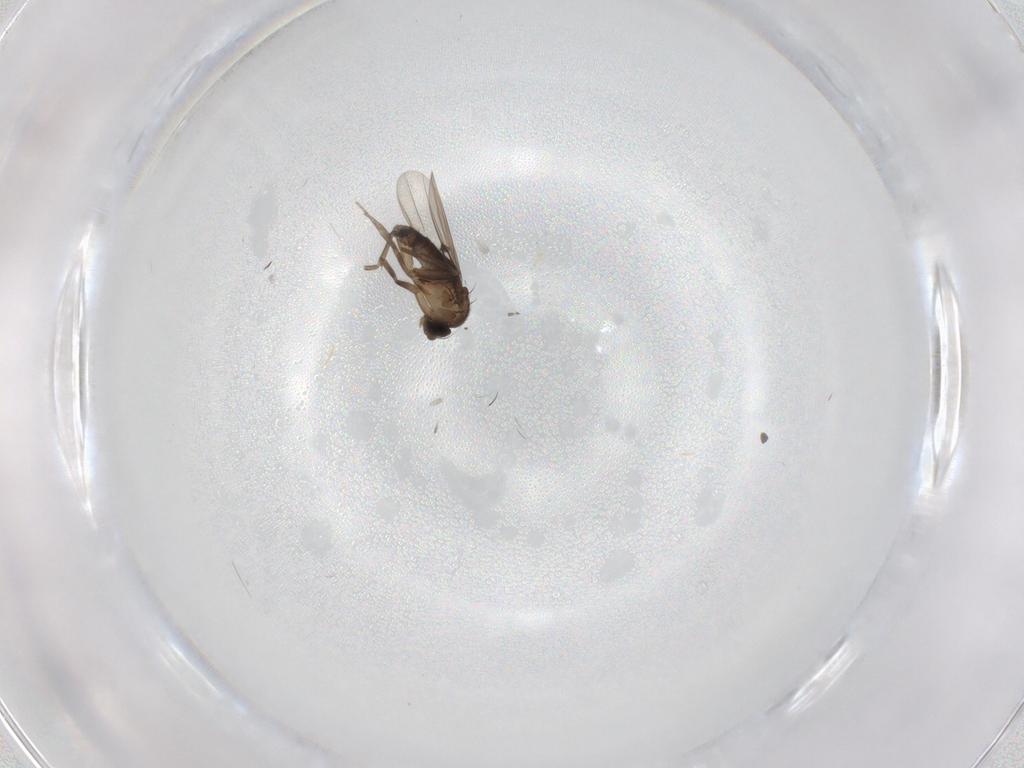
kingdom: Animalia
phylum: Arthropoda
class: Insecta
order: Diptera
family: Phoridae
